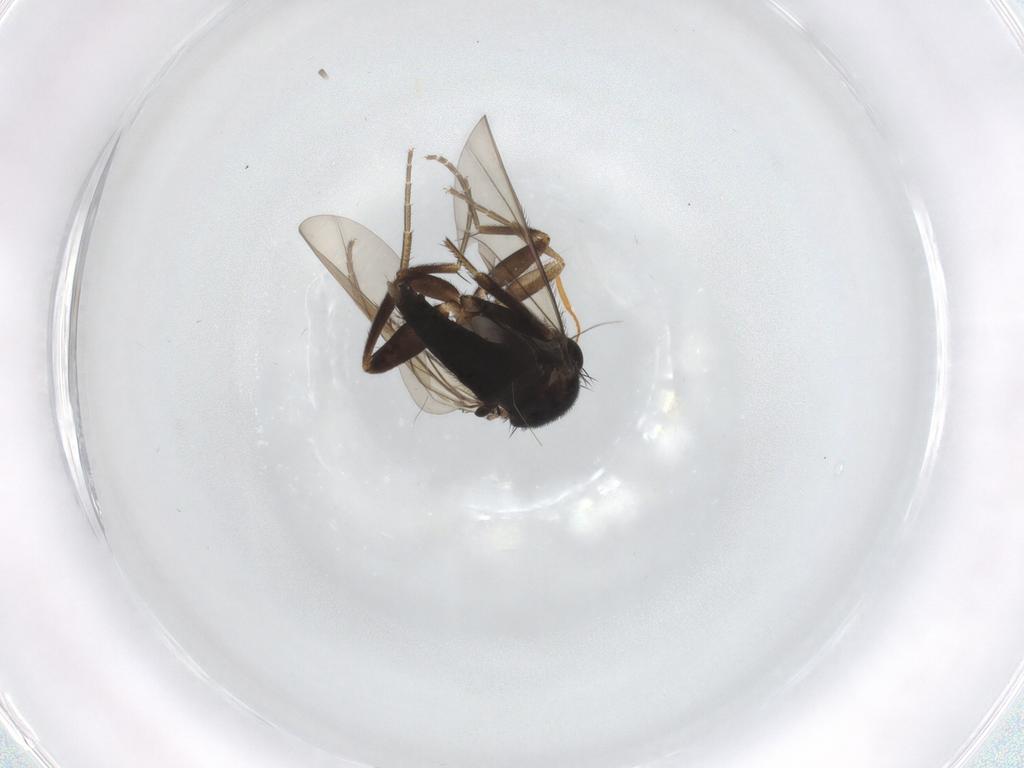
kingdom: Animalia
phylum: Arthropoda
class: Insecta
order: Diptera
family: Phoridae
